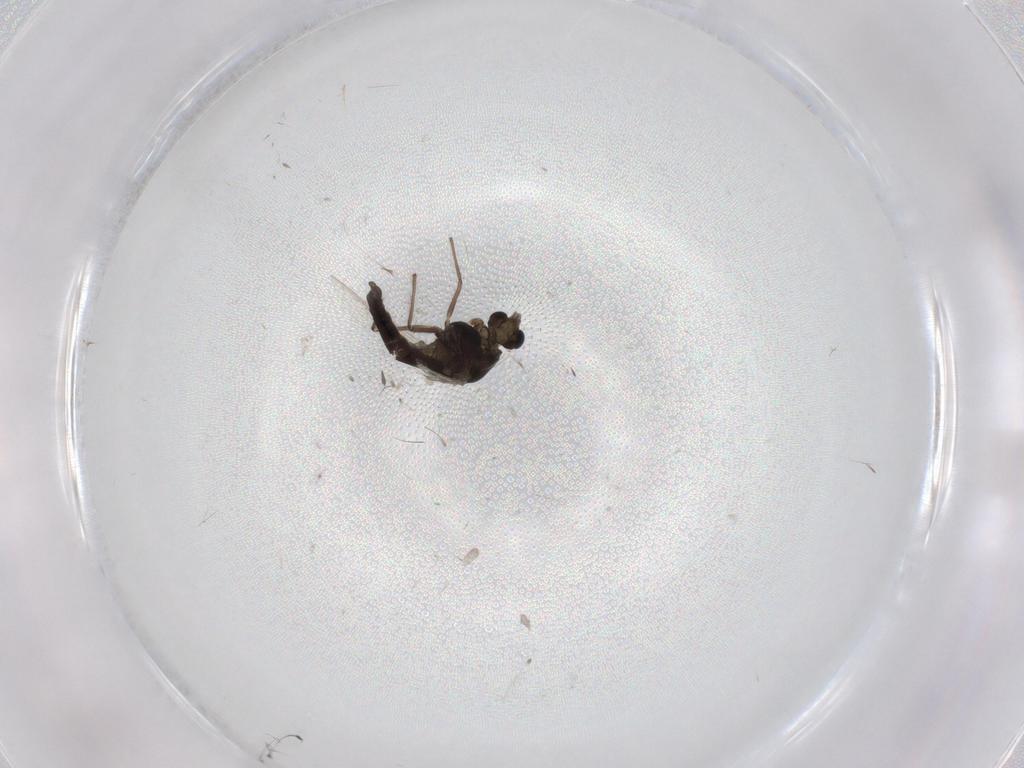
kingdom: Animalia
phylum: Arthropoda
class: Insecta
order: Diptera
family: Chironomidae
